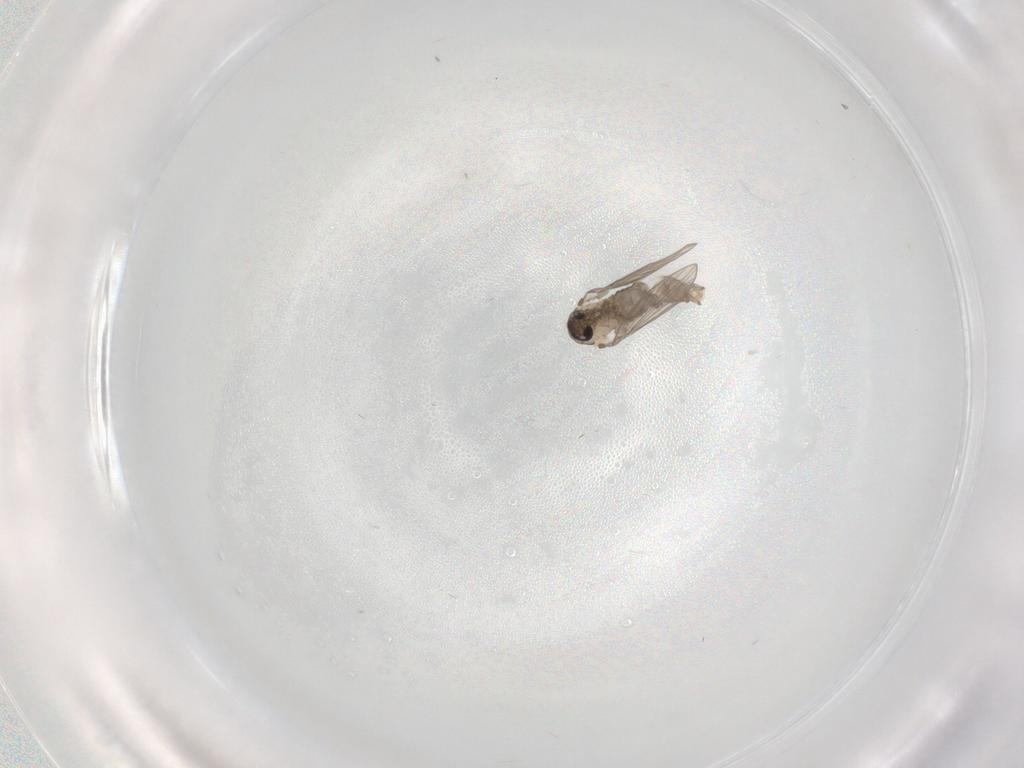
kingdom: Animalia
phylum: Arthropoda
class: Insecta
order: Diptera
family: Psychodidae
